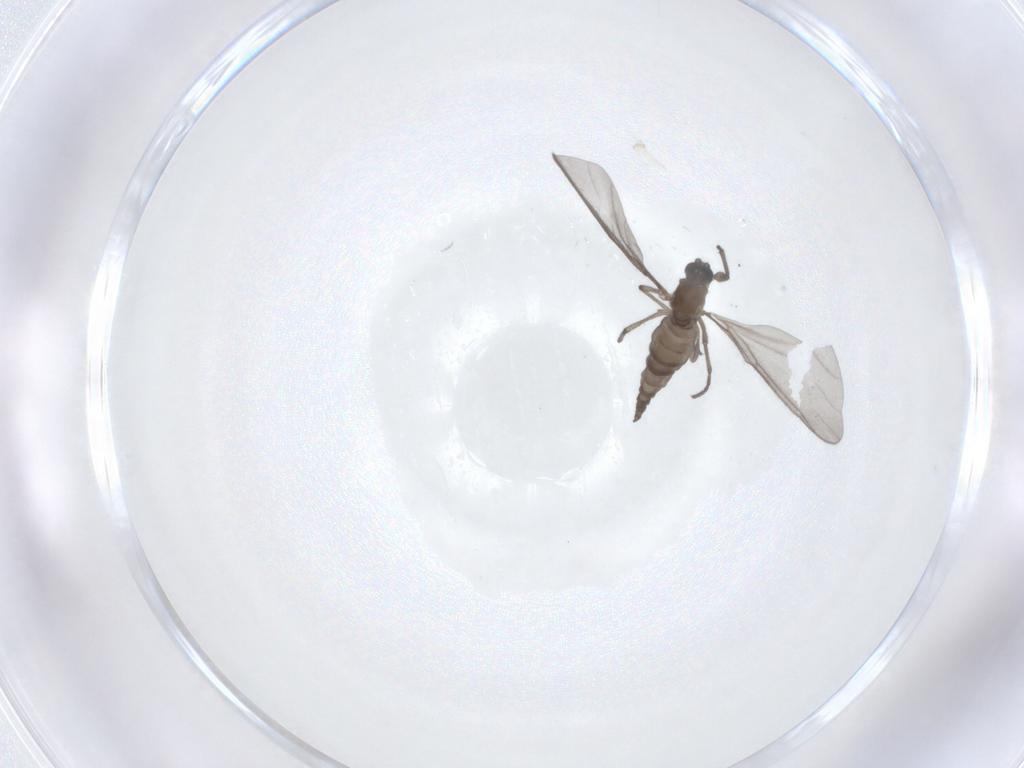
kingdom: Animalia
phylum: Arthropoda
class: Insecta
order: Diptera
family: Sciaridae
